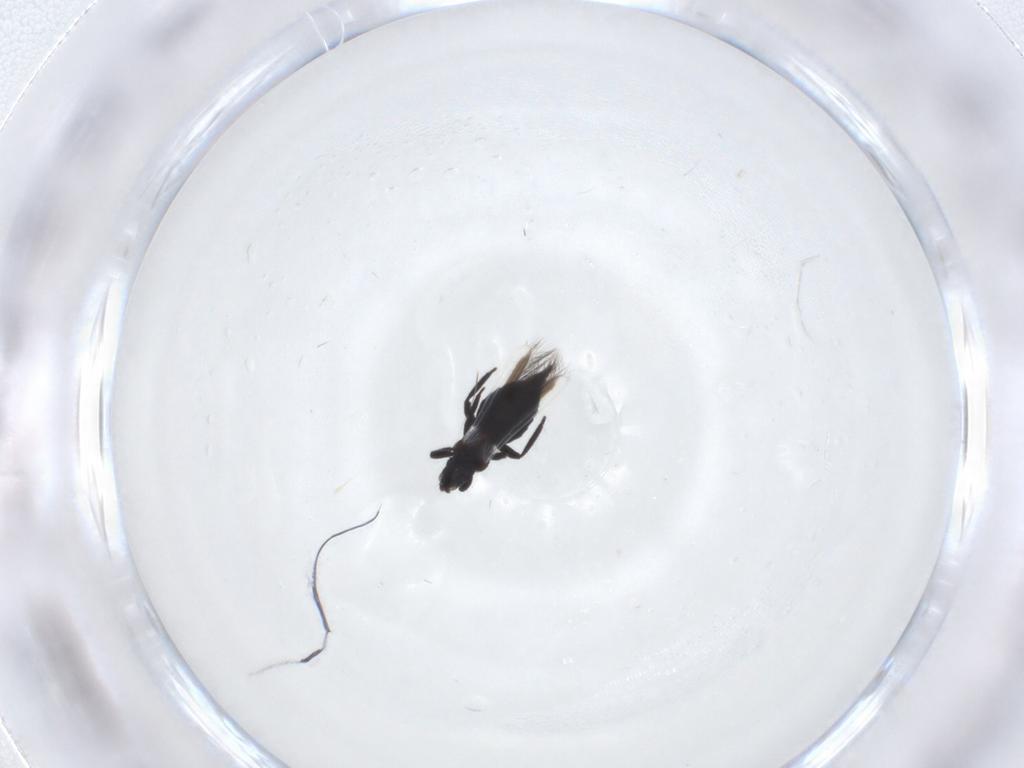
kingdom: Animalia
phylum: Arthropoda
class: Insecta
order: Thysanoptera
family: Aeolothripidae
